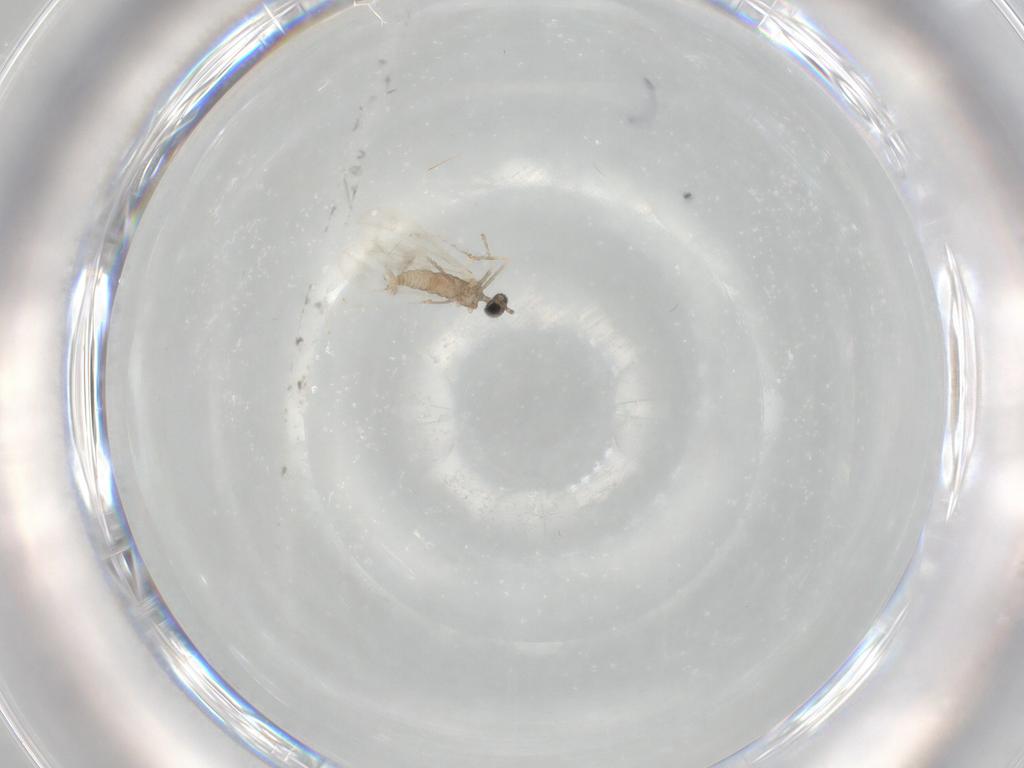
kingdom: Animalia
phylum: Arthropoda
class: Insecta
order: Diptera
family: Cecidomyiidae
